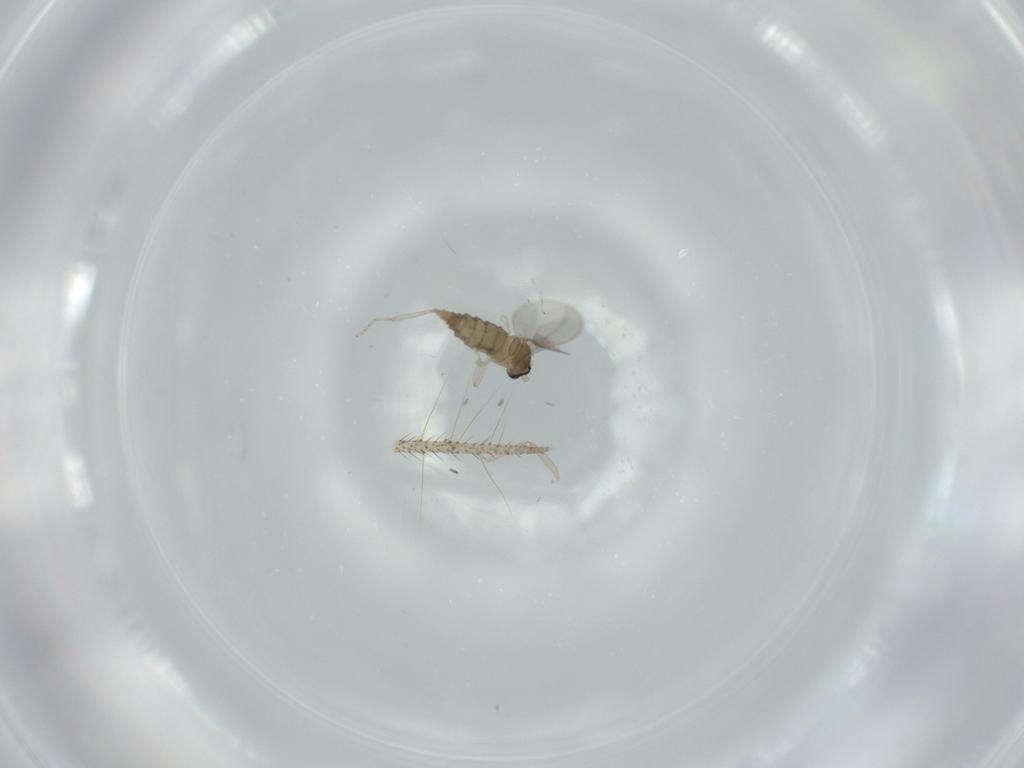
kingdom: Animalia
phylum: Arthropoda
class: Insecta
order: Diptera
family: Cecidomyiidae
